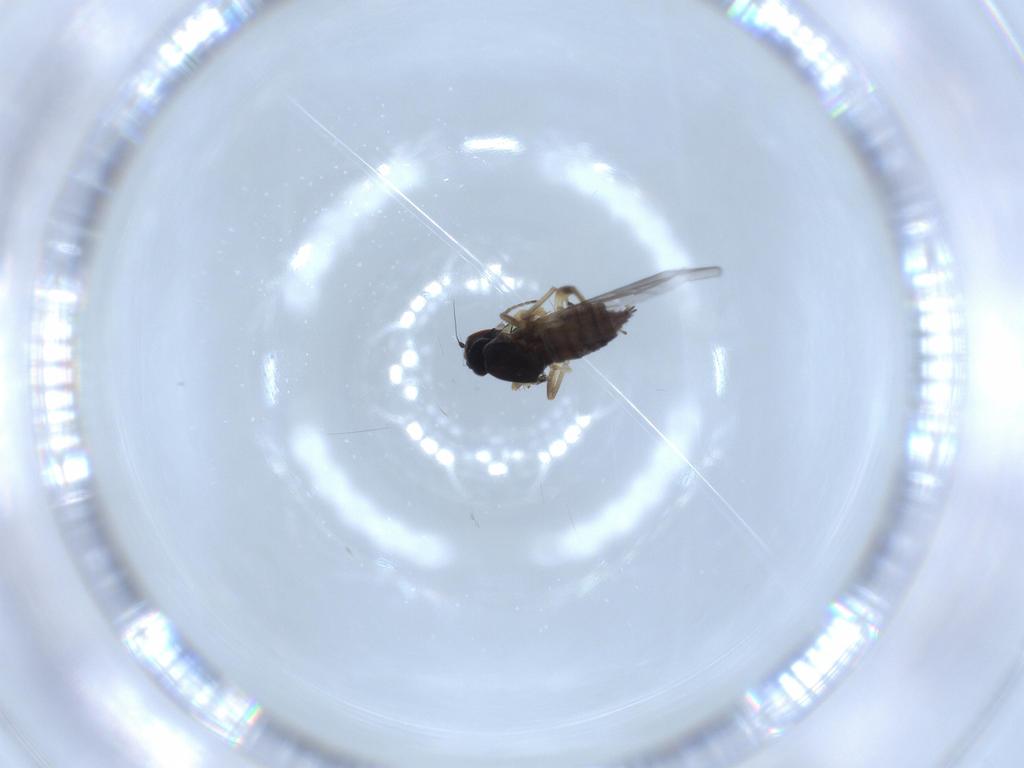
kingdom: Animalia
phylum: Arthropoda
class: Insecta
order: Diptera
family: Hybotidae
